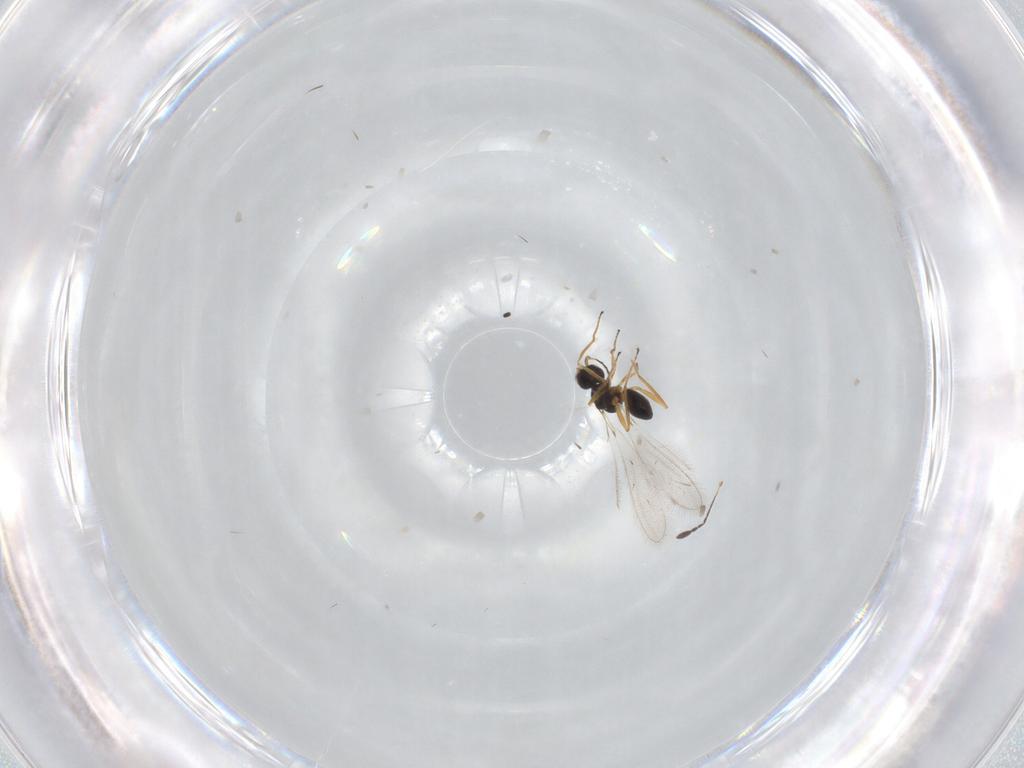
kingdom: Animalia
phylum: Arthropoda
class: Insecta
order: Hymenoptera
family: Mymaridae
